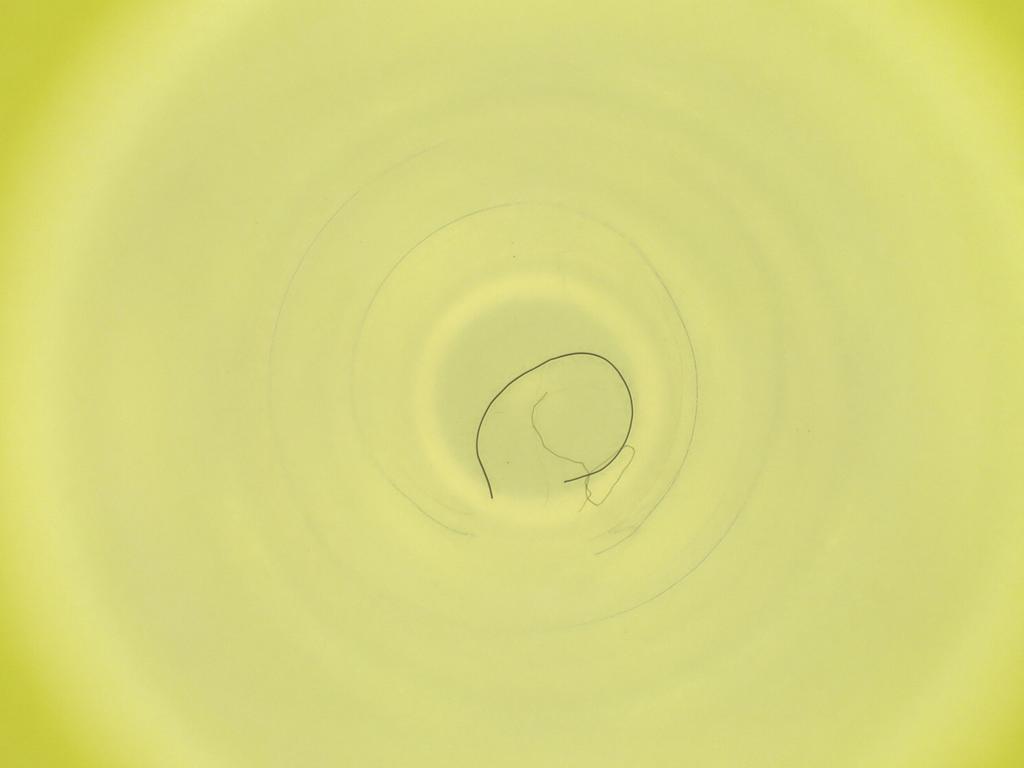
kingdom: Animalia
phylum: Arthropoda
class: Insecta
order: Diptera
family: Cecidomyiidae
